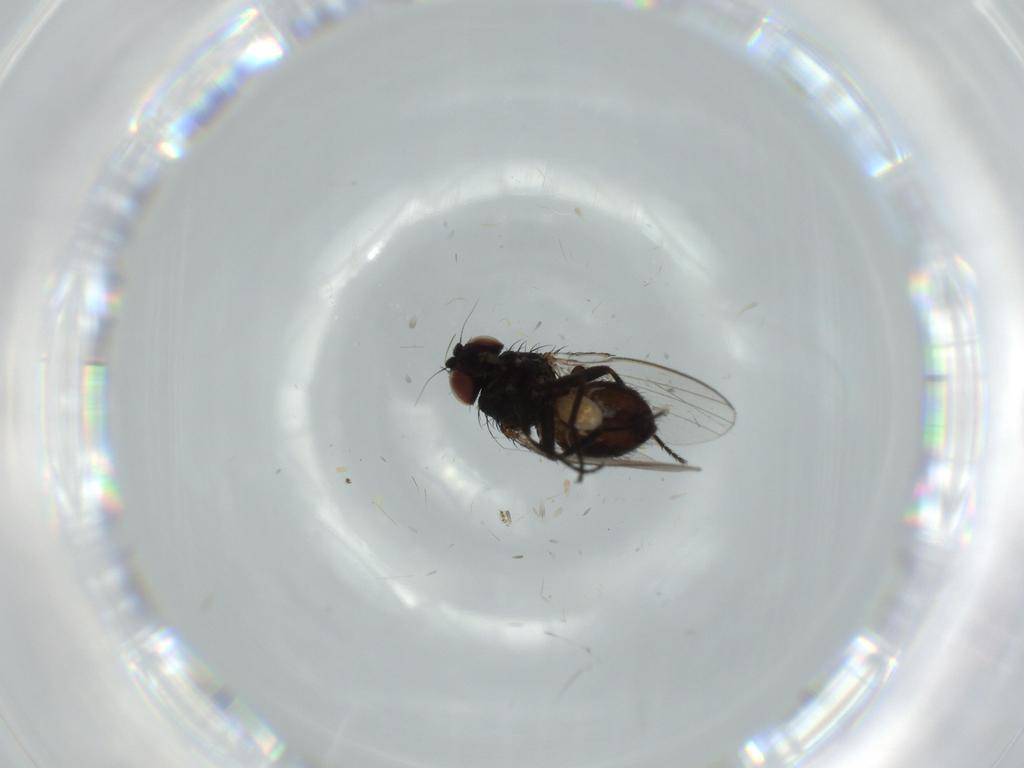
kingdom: Animalia
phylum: Arthropoda
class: Insecta
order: Diptera
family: Milichiidae
